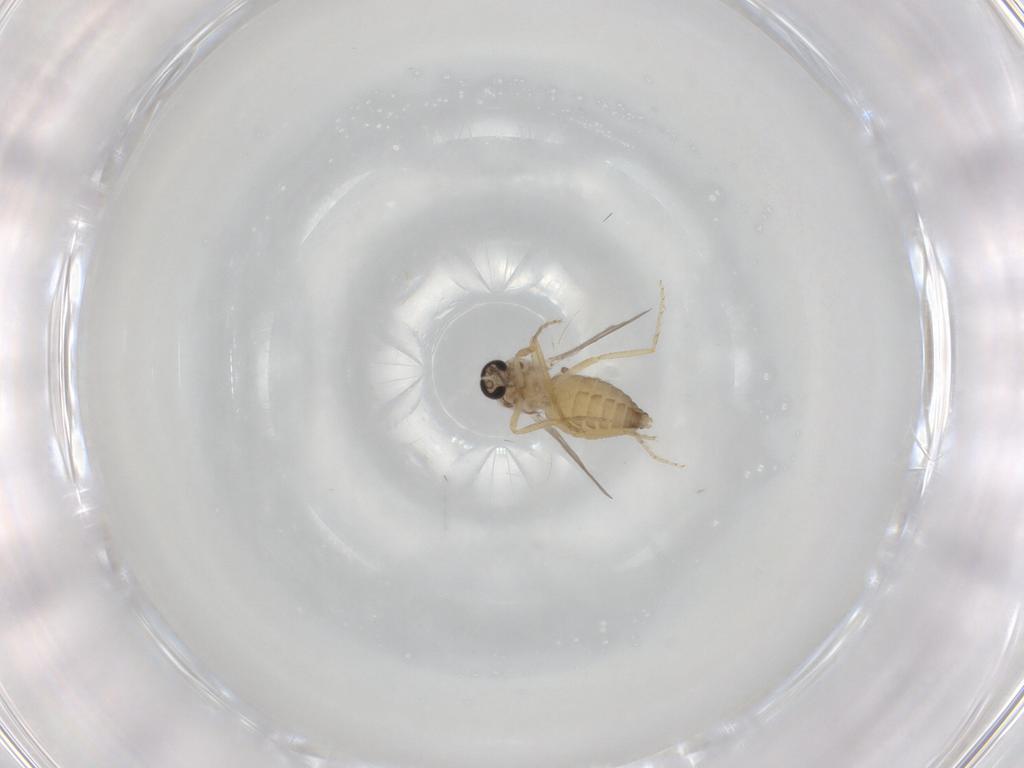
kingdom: Animalia
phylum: Arthropoda
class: Insecta
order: Diptera
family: Ceratopogonidae
